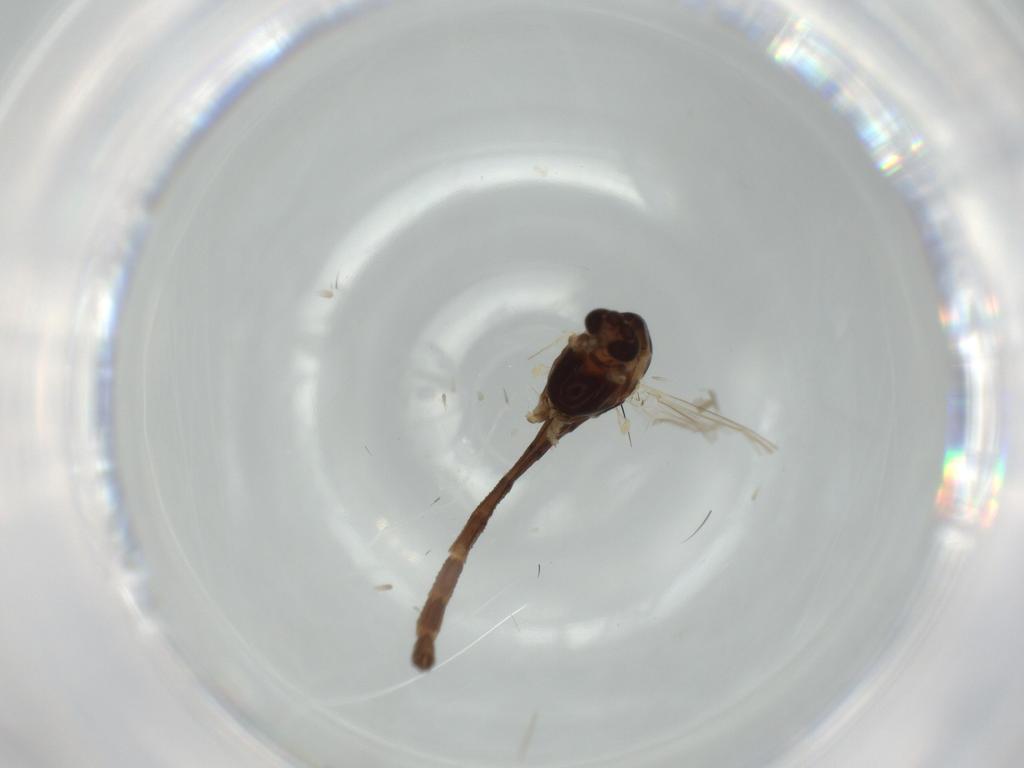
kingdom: Animalia
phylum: Arthropoda
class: Insecta
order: Diptera
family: Chironomidae
